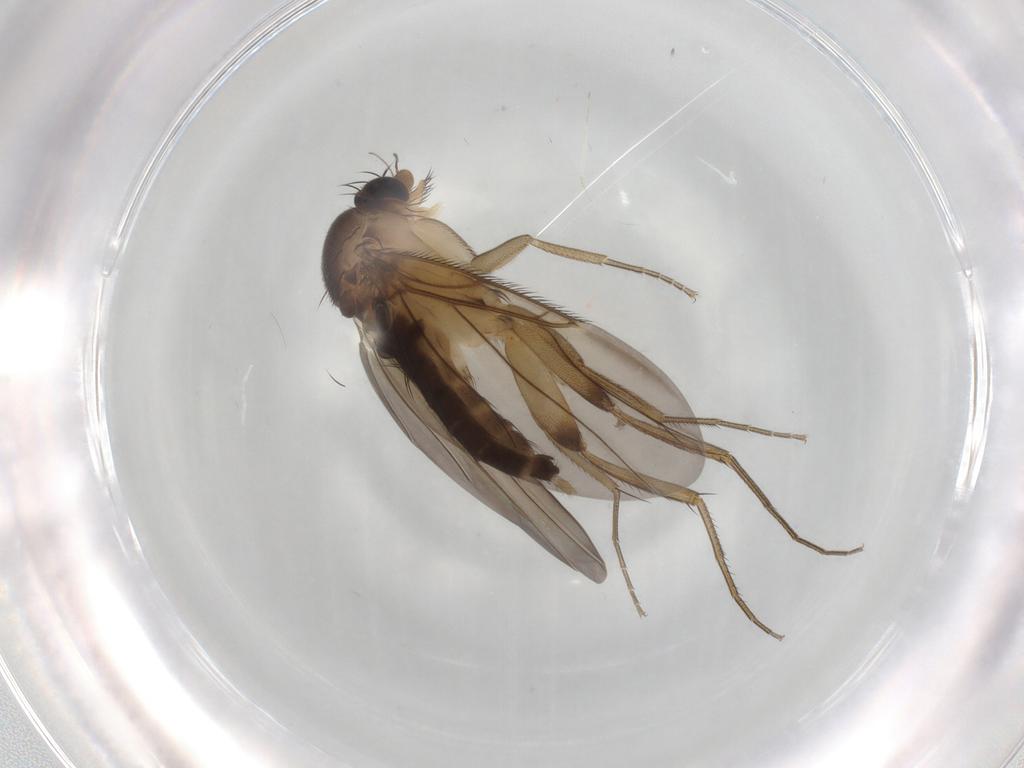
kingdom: Animalia
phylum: Arthropoda
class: Insecta
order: Diptera
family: Phoridae
